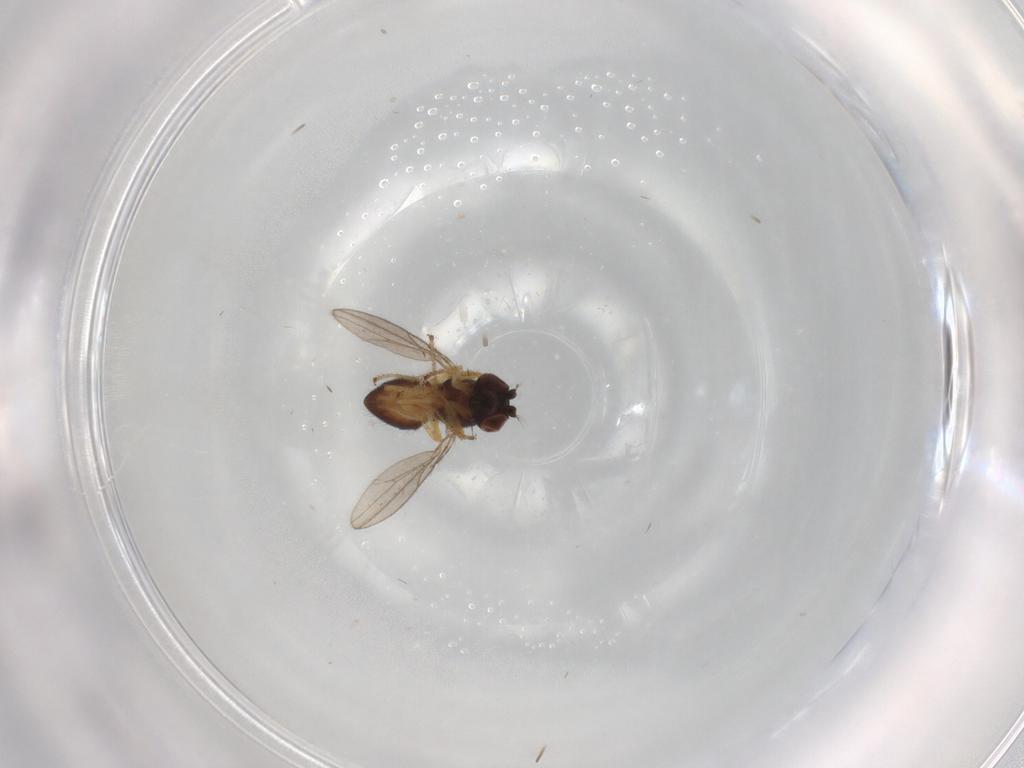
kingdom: Animalia
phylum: Arthropoda
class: Insecta
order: Diptera
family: Ephydridae
